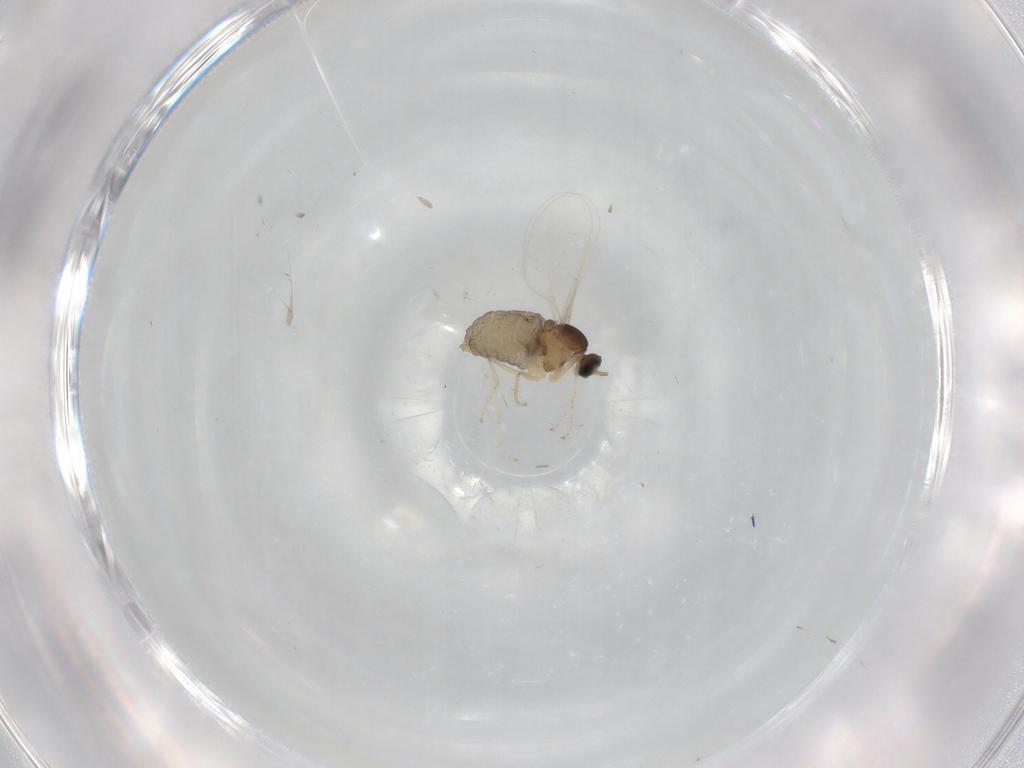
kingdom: Animalia
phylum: Arthropoda
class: Insecta
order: Diptera
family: Cecidomyiidae
